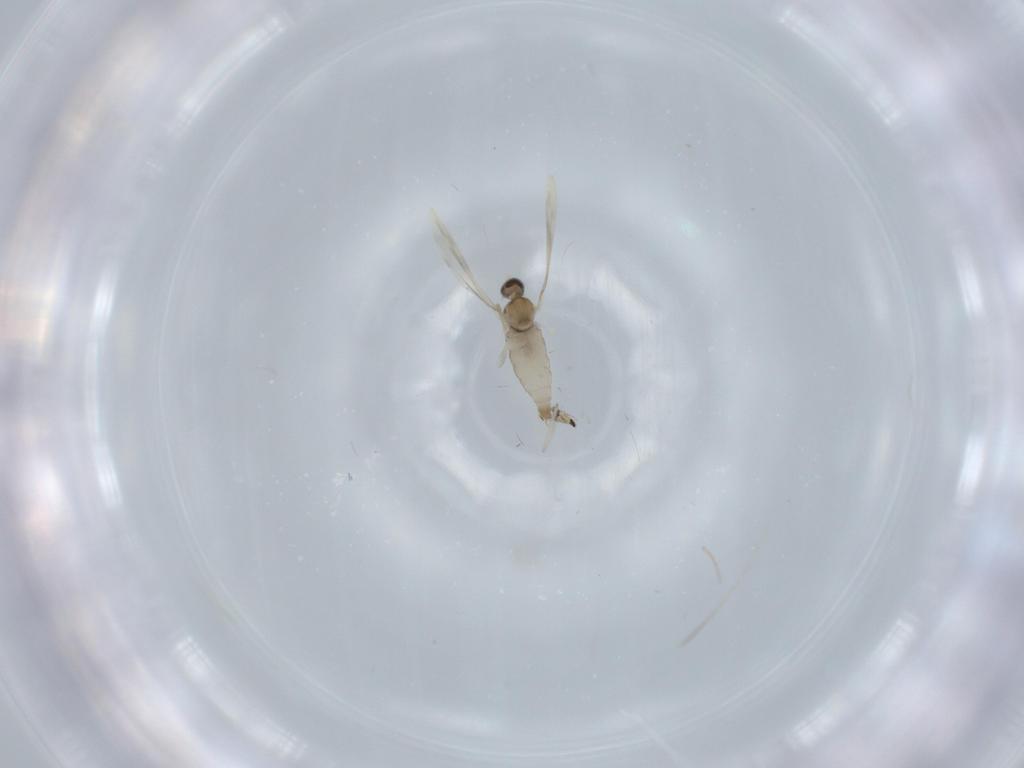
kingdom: Animalia
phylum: Arthropoda
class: Insecta
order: Diptera
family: Cecidomyiidae
